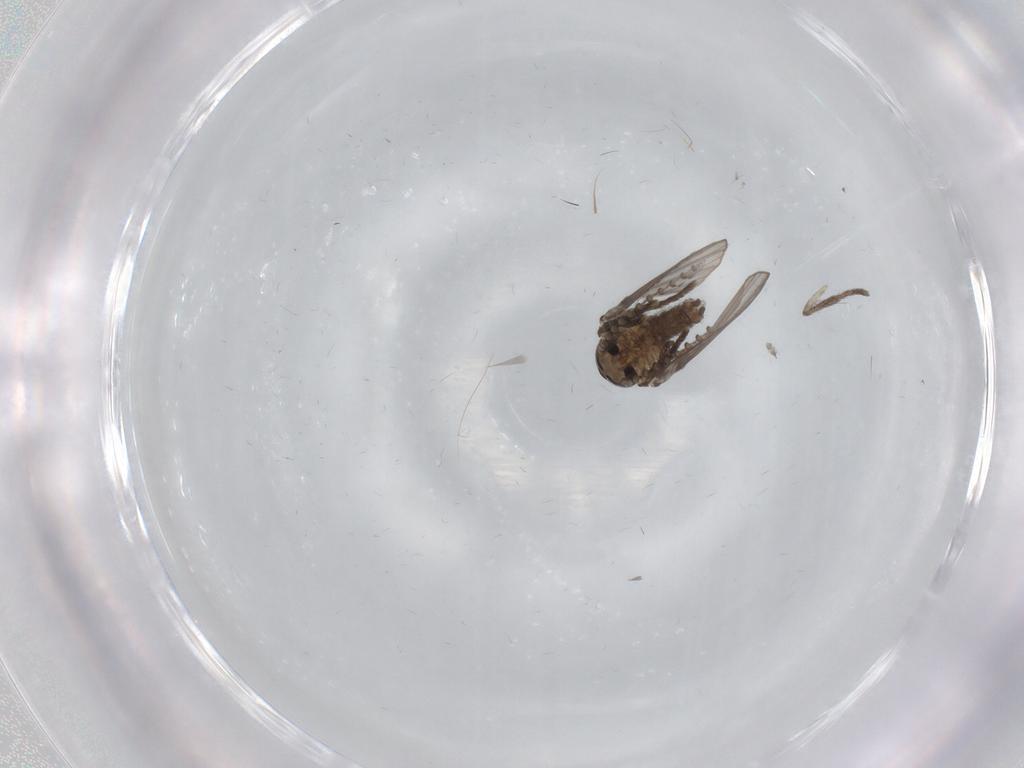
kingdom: Animalia
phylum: Arthropoda
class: Insecta
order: Diptera
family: Psychodidae
